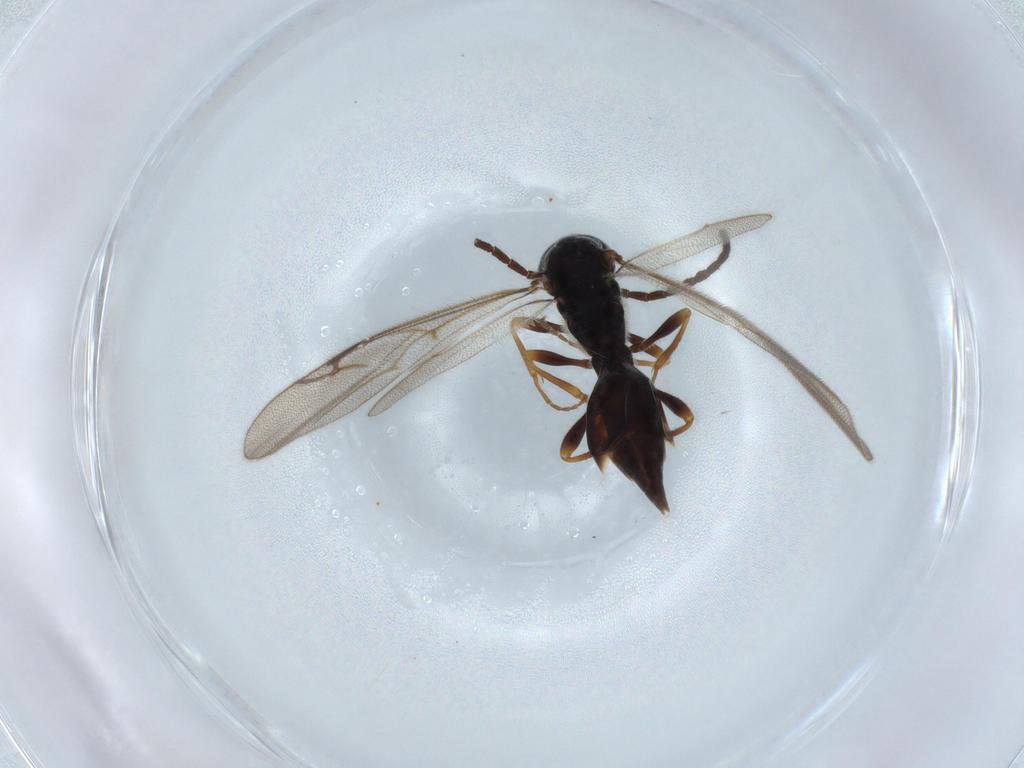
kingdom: Animalia
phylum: Arthropoda
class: Insecta
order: Hymenoptera
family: Proctotrupidae
